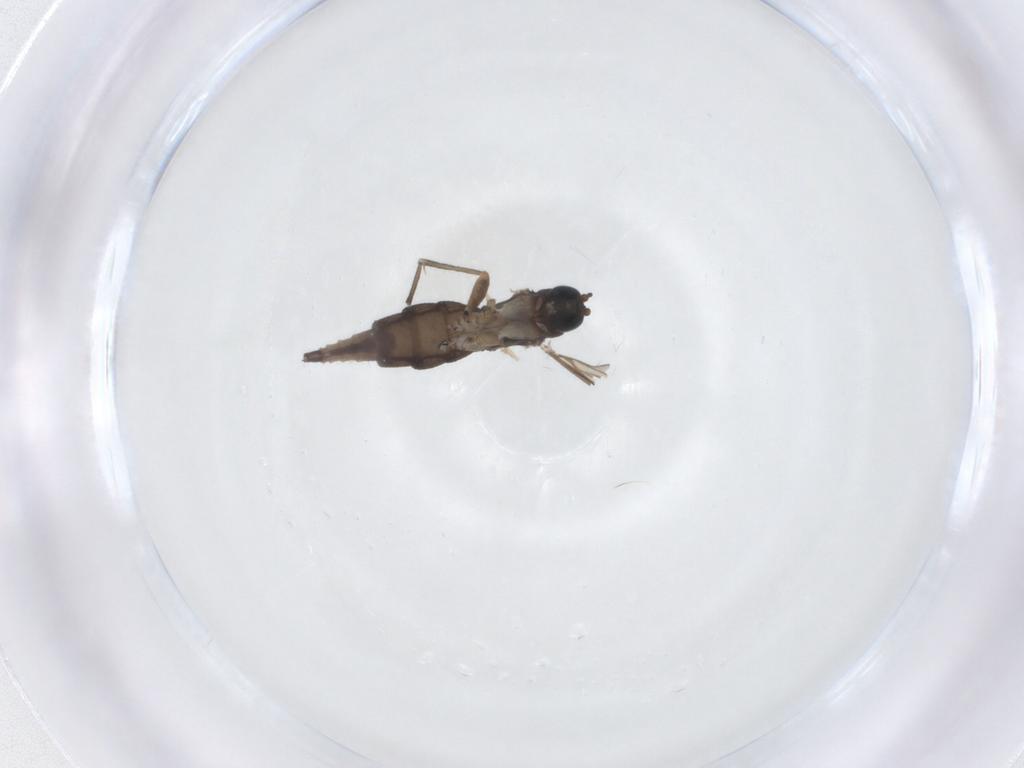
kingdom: Animalia
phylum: Arthropoda
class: Insecta
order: Diptera
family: Sciaridae
